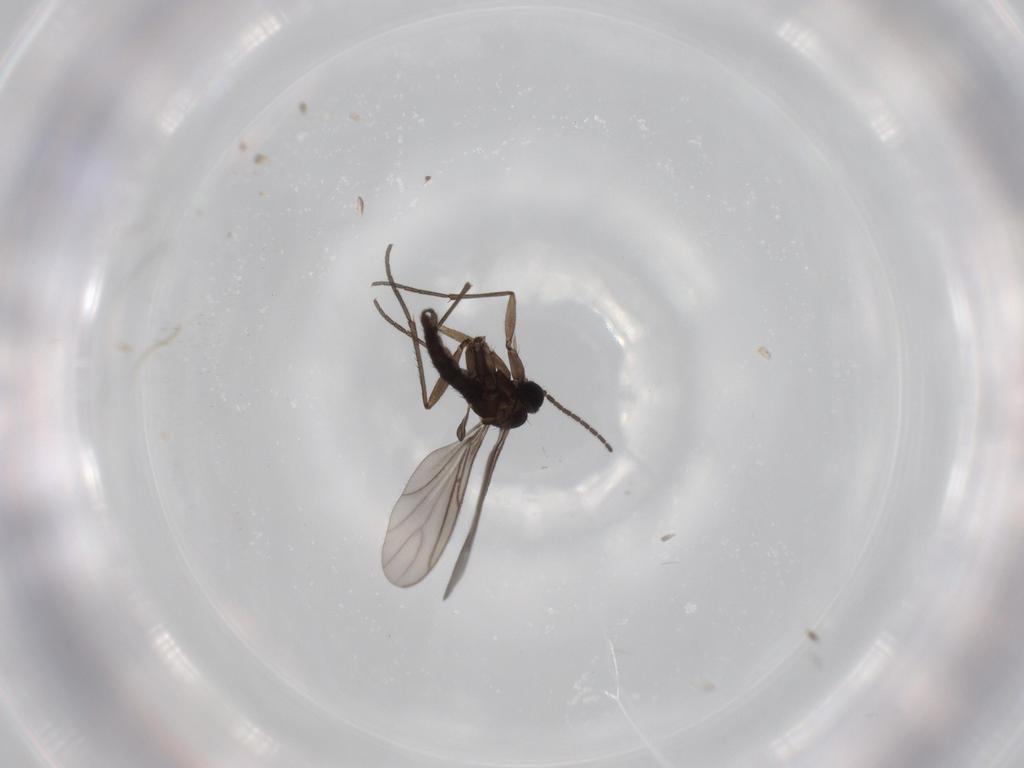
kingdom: Animalia
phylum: Arthropoda
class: Insecta
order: Diptera
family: Sciaridae
